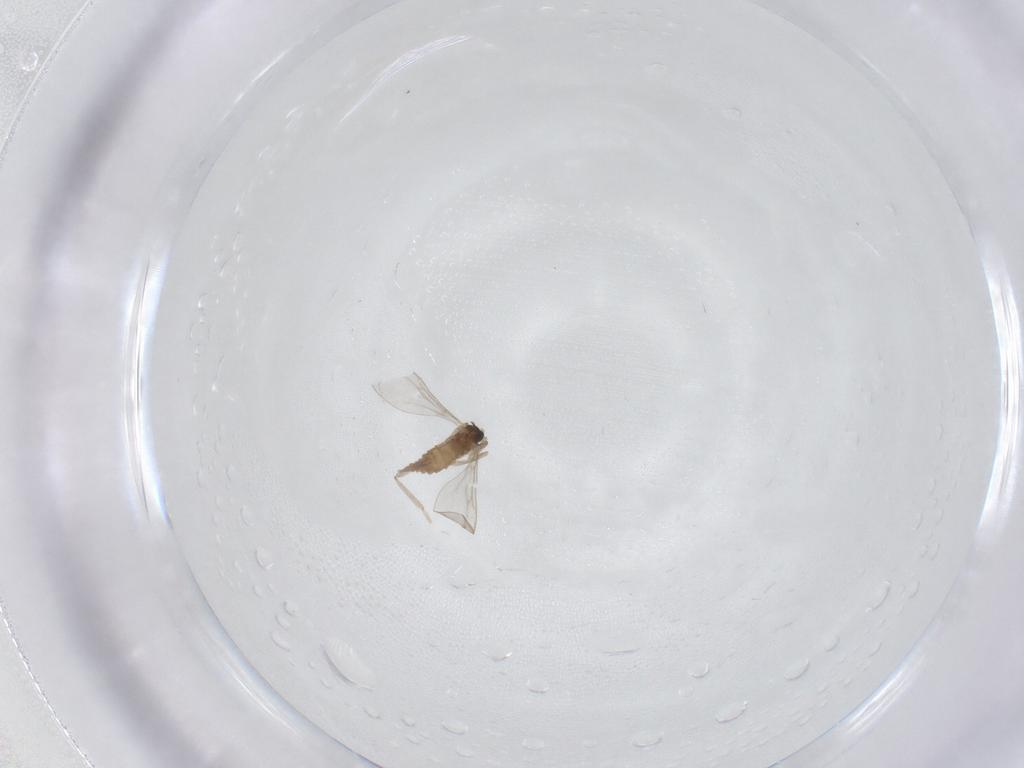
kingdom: Animalia
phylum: Arthropoda
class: Insecta
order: Diptera
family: Cecidomyiidae
